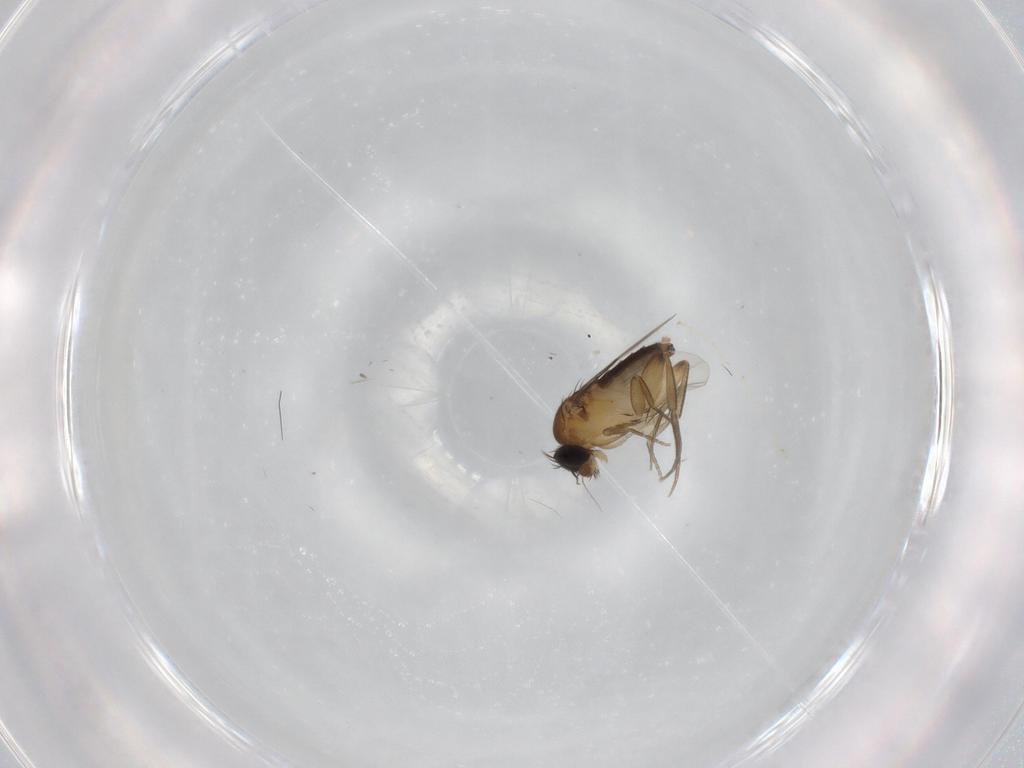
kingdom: Animalia
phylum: Arthropoda
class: Insecta
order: Diptera
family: Phoridae
